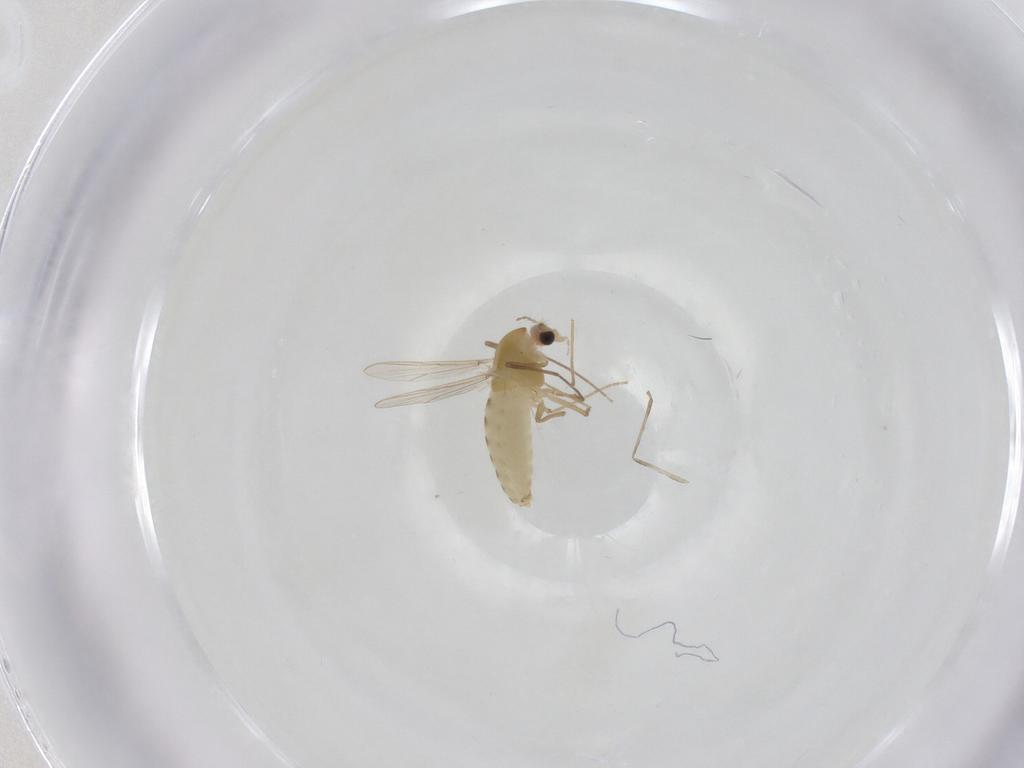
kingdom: Animalia
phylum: Arthropoda
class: Insecta
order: Diptera
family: Chironomidae
